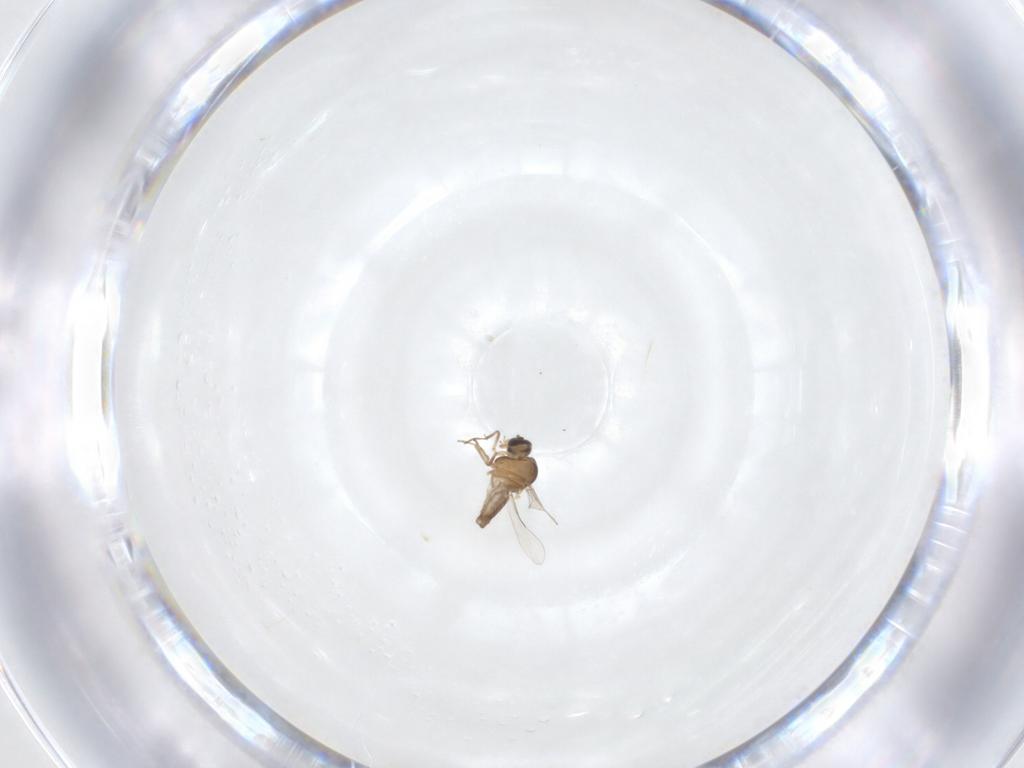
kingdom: Animalia
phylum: Arthropoda
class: Insecta
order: Diptera
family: Ceratopogonidae
